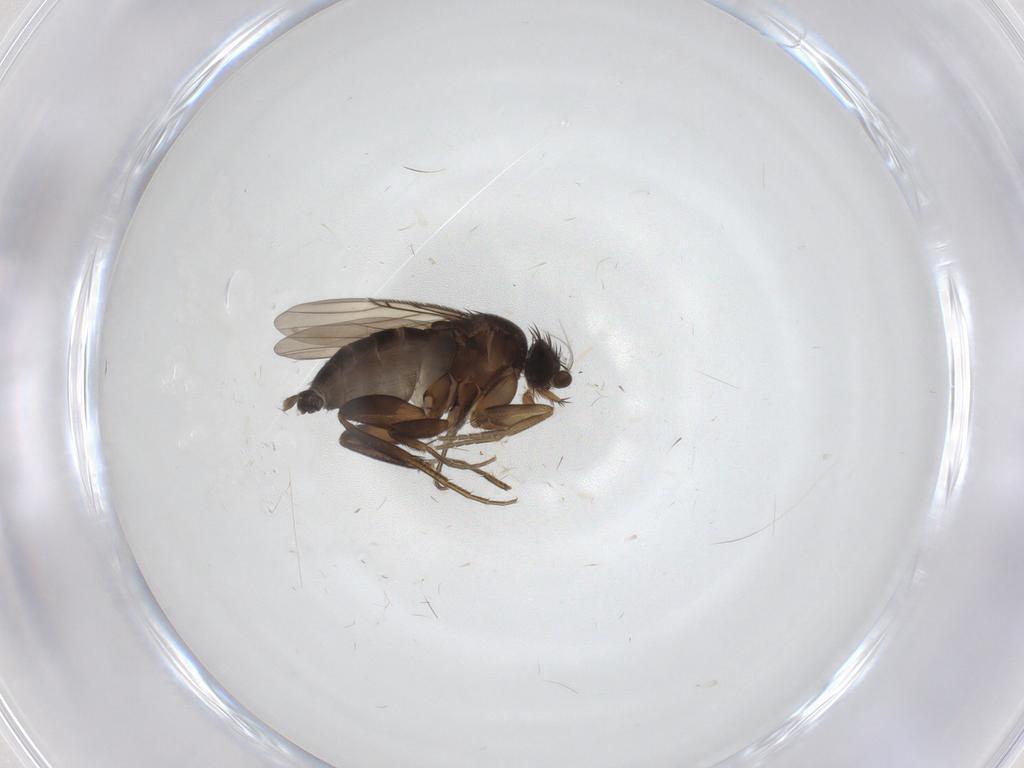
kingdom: Animalia
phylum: Arthropoda
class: Insecta
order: Diptera
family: Phoridae
